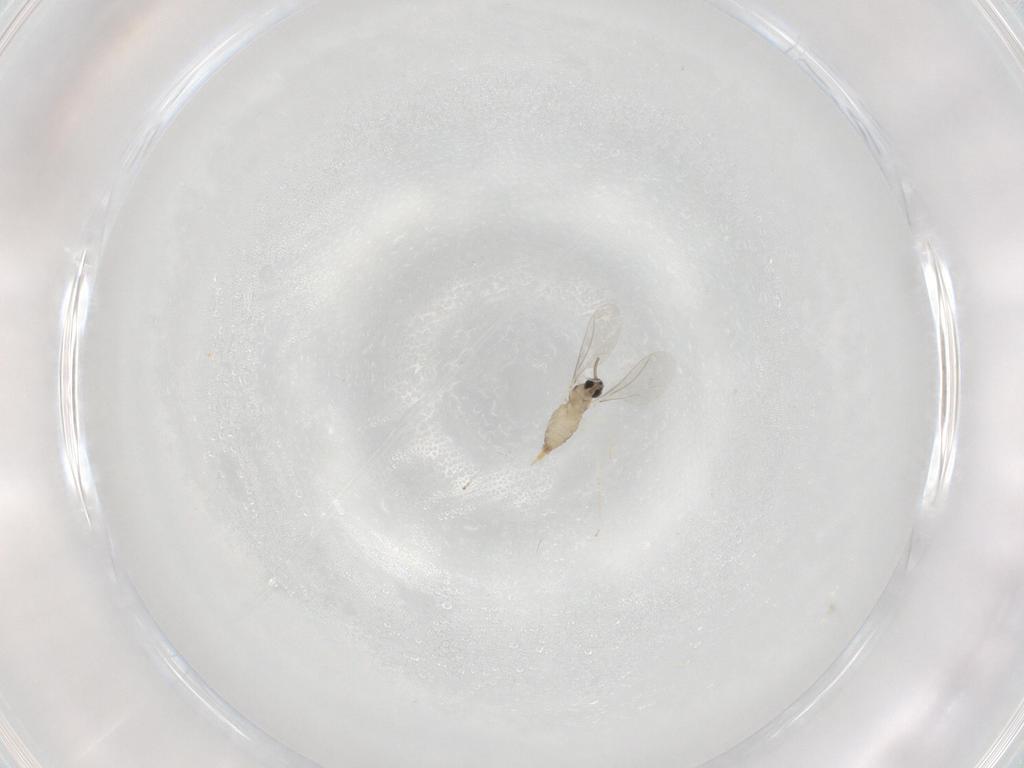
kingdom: Animalia
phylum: Arthropoda
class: Insecta
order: Diptera
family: Cecidomyiidae
